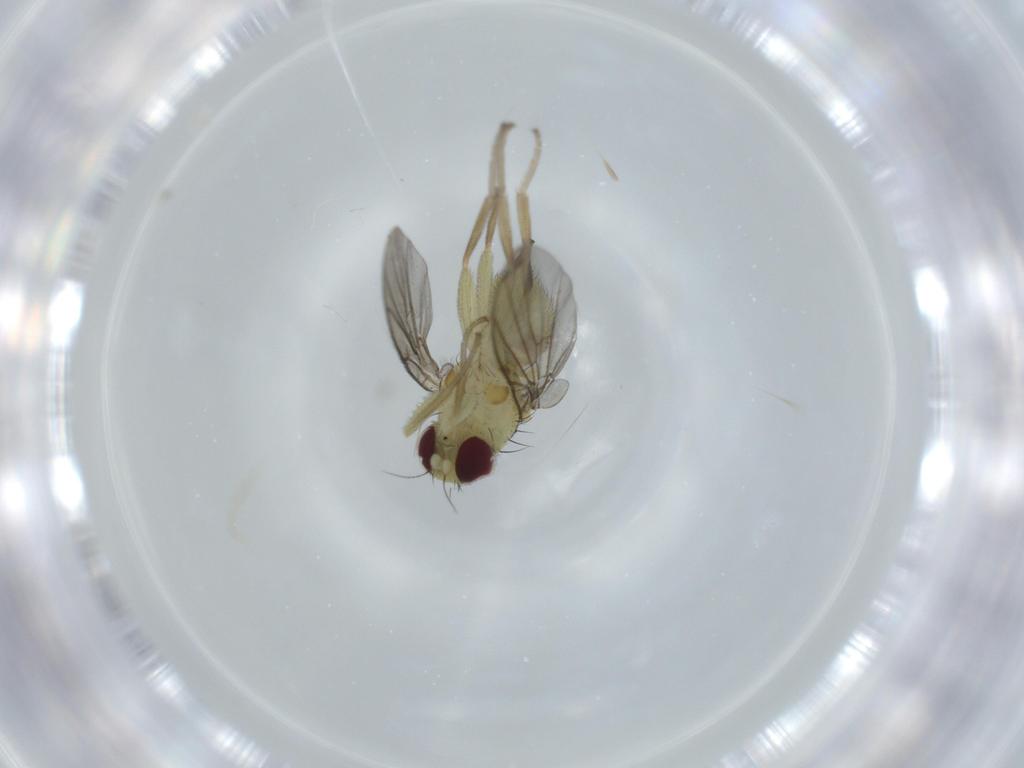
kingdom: Animalia
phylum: Arthropoda
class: Insecta
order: Diptera
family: Agromyzidae
